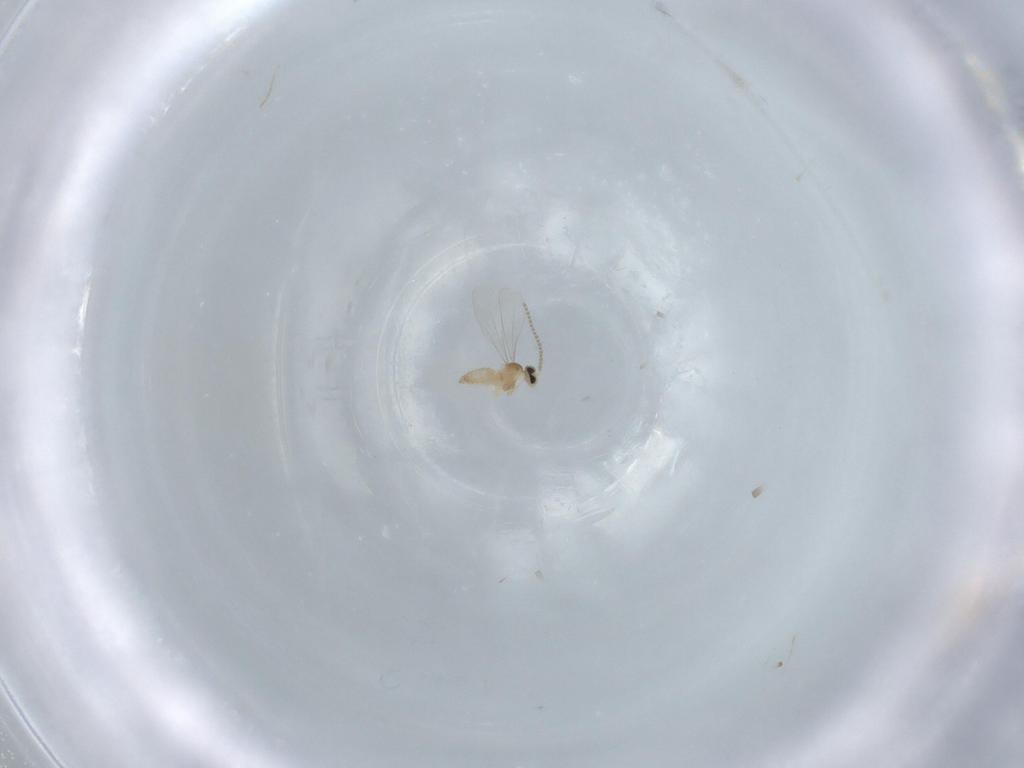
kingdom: Animalia
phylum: Arthropoda
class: Insecta
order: Diptera
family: Cecidomyiidae
